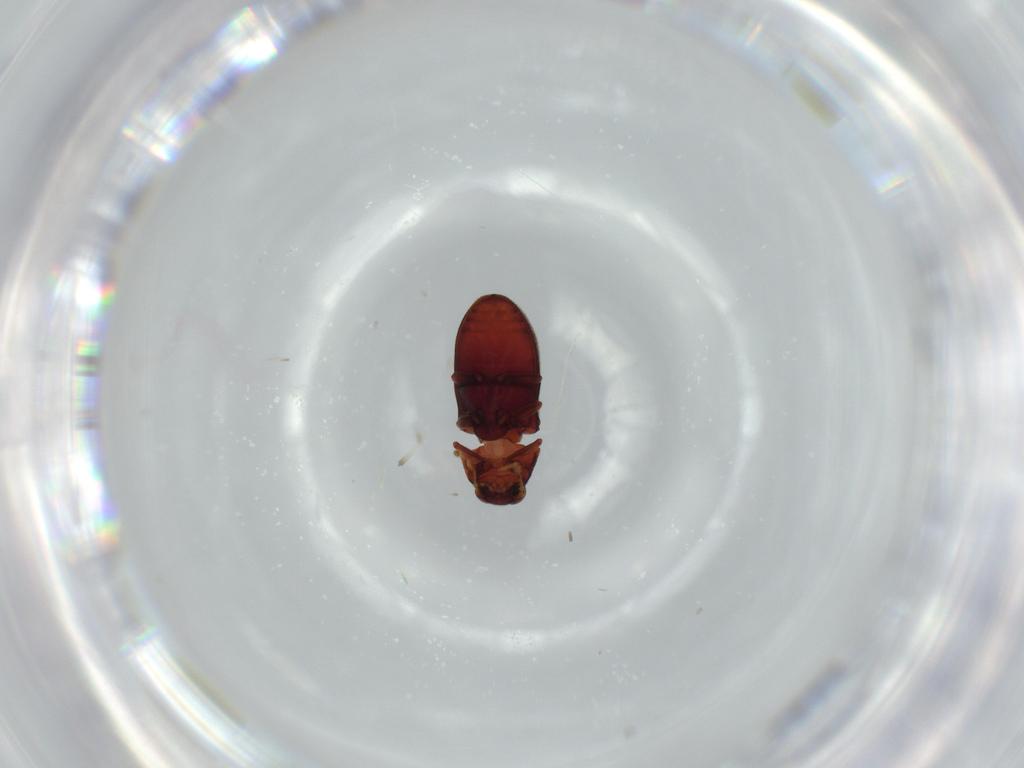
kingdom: Animalia
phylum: Arthropoda
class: Insecta
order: Coleoptera
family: Ptinidae
